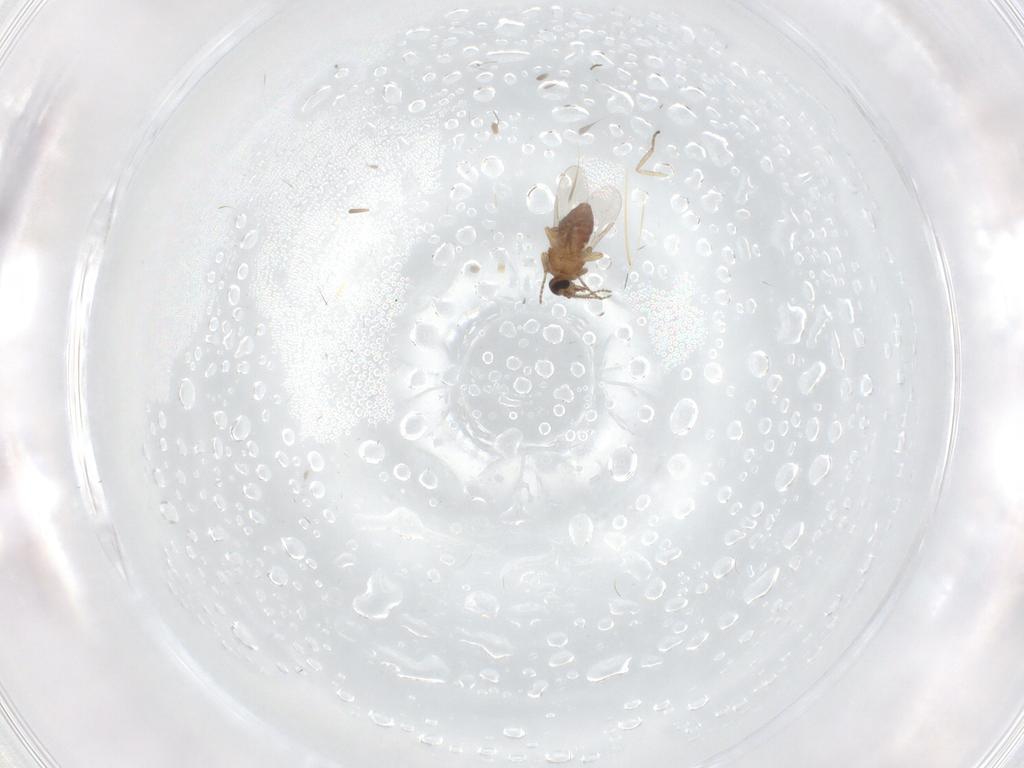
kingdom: Animalia
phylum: Arthropoda
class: Insecta
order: Diptera
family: Ceratopogonidae
